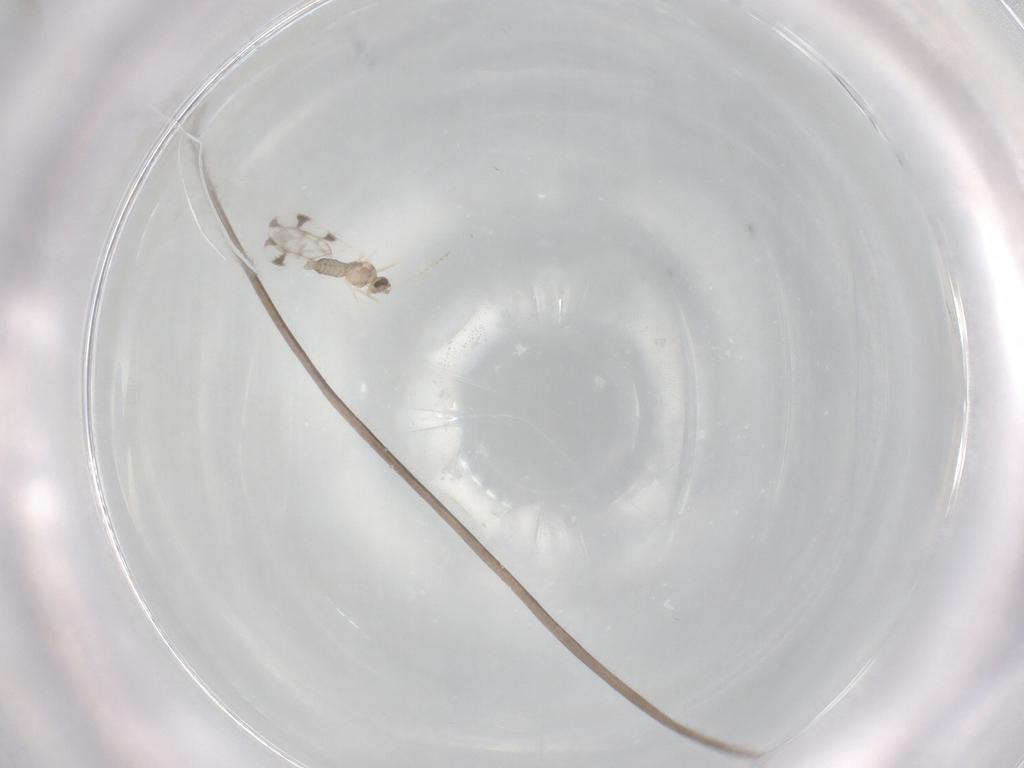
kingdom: Animalia
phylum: Arthropoda
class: Insecta
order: Diptera
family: Cecidomyiidae
